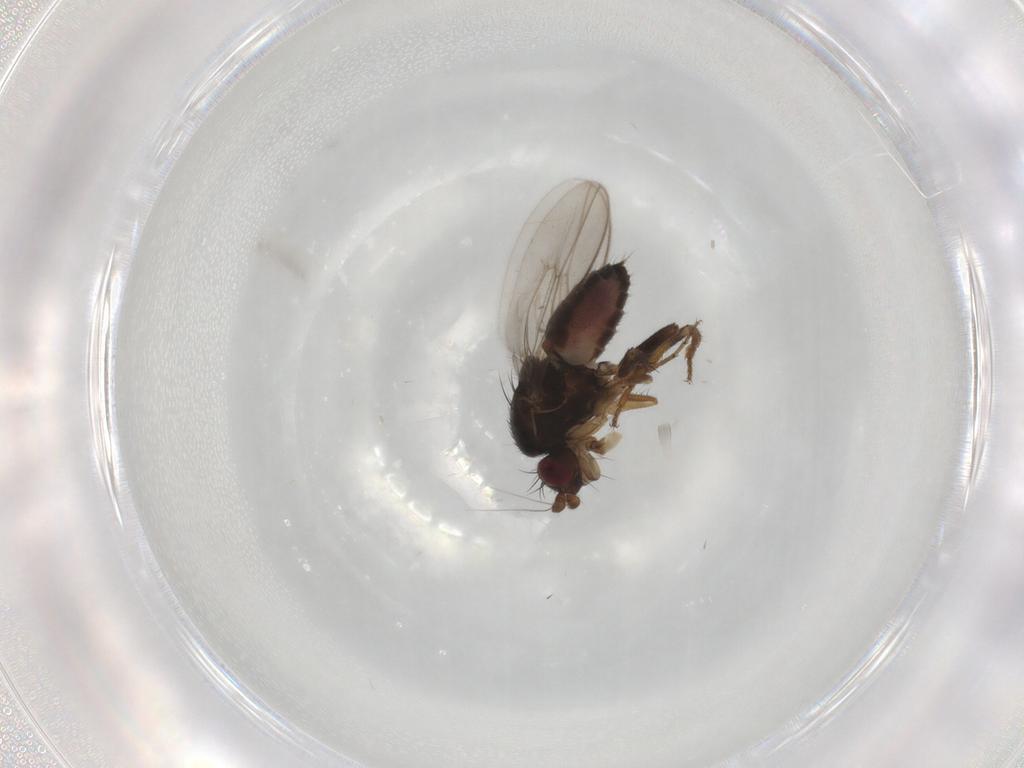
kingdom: Animalia
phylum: Arthropoda
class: Insecta
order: Diptera
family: Sphaeroceridae
